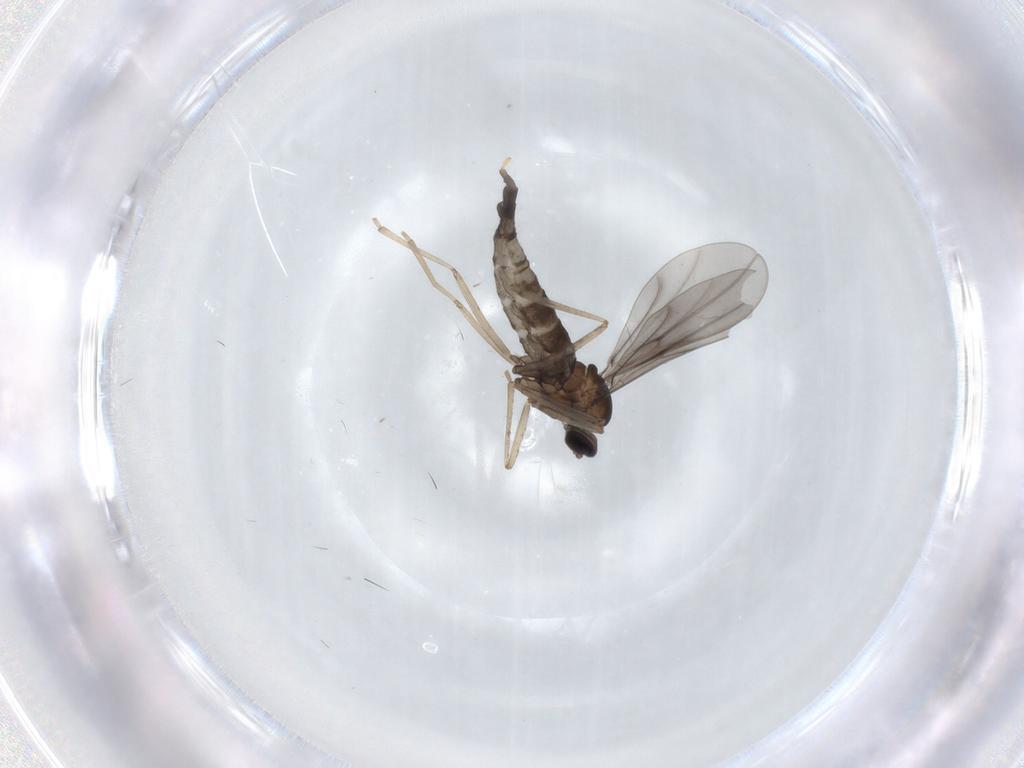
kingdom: Animalia
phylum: Arthropoda
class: Insecta
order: Diptera
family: Cecidomyiidae
